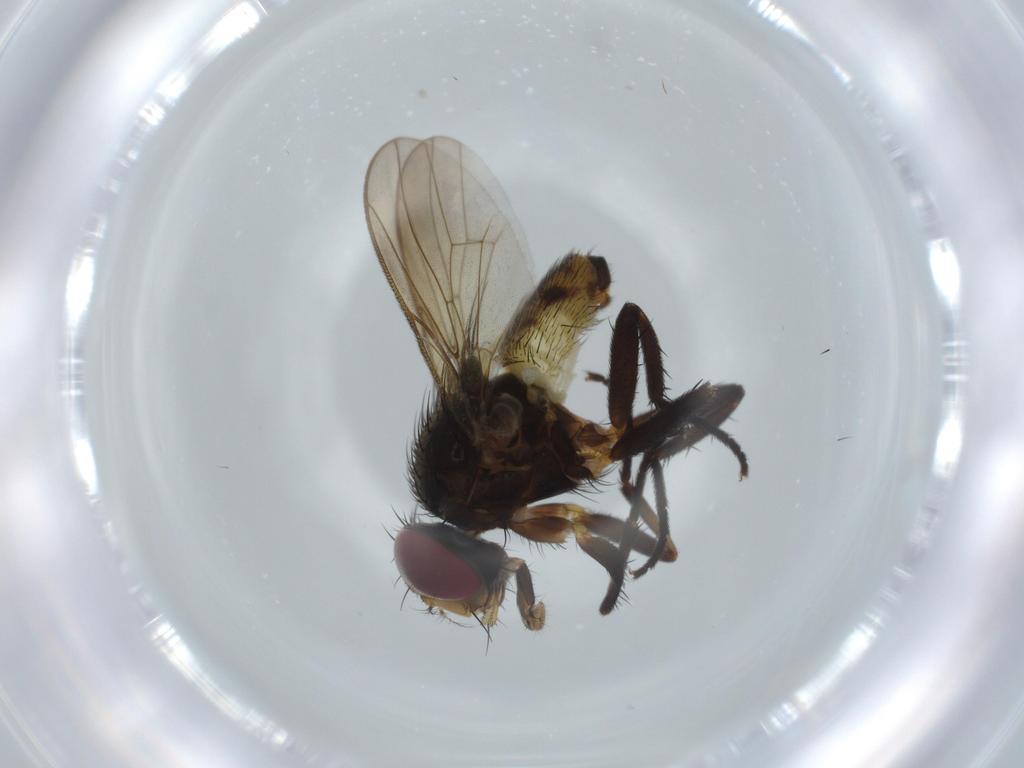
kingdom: Animalia
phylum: Arthropoda
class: Insecta
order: Diptera
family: Anthomyiidae
